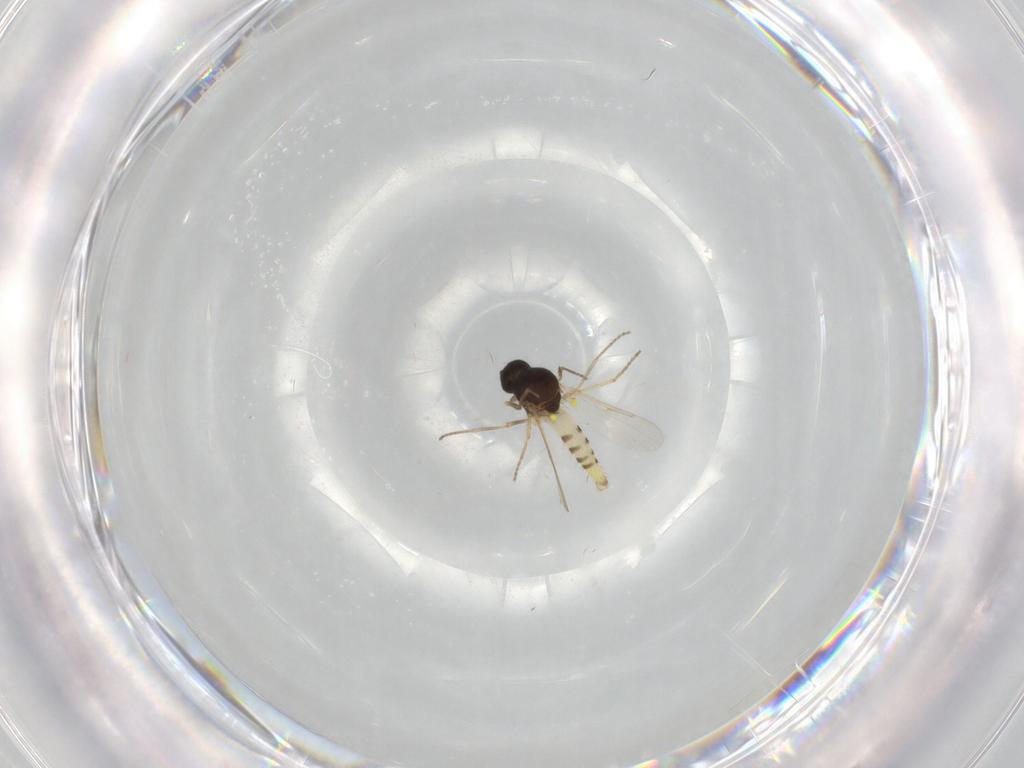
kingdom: Animalia
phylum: Arthropoda
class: Insecta
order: Diptera
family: Ceratopogonidae
